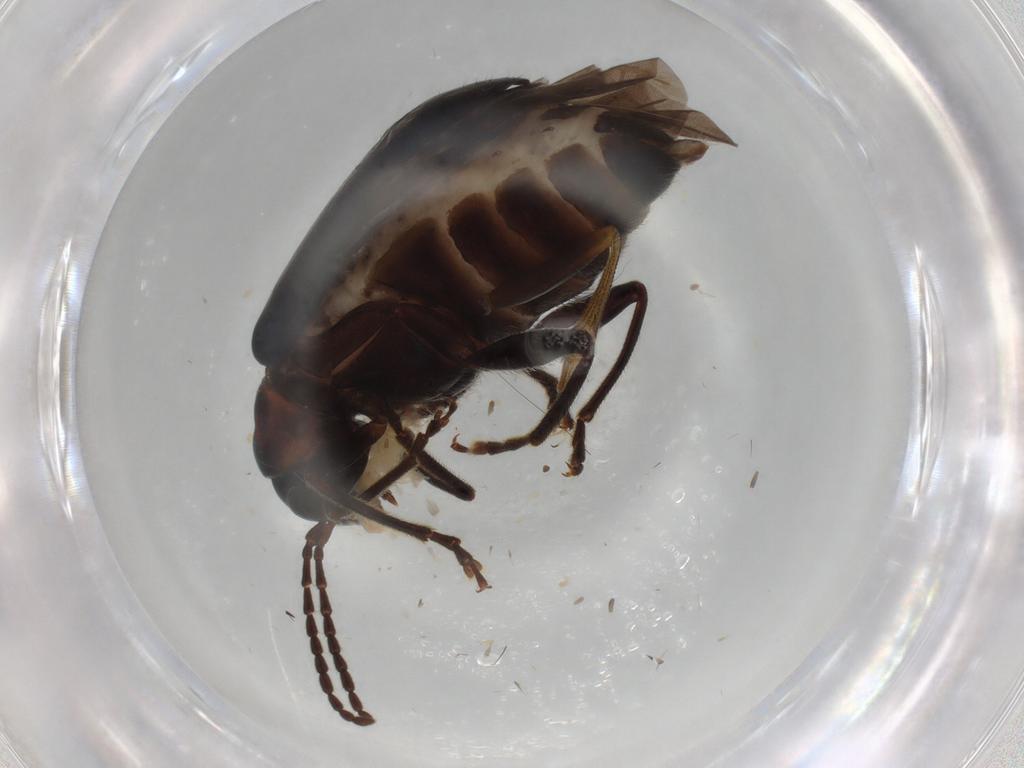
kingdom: Animalia
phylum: Arthropoda
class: Insecta
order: Coleoptera
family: Chrysomelidae
